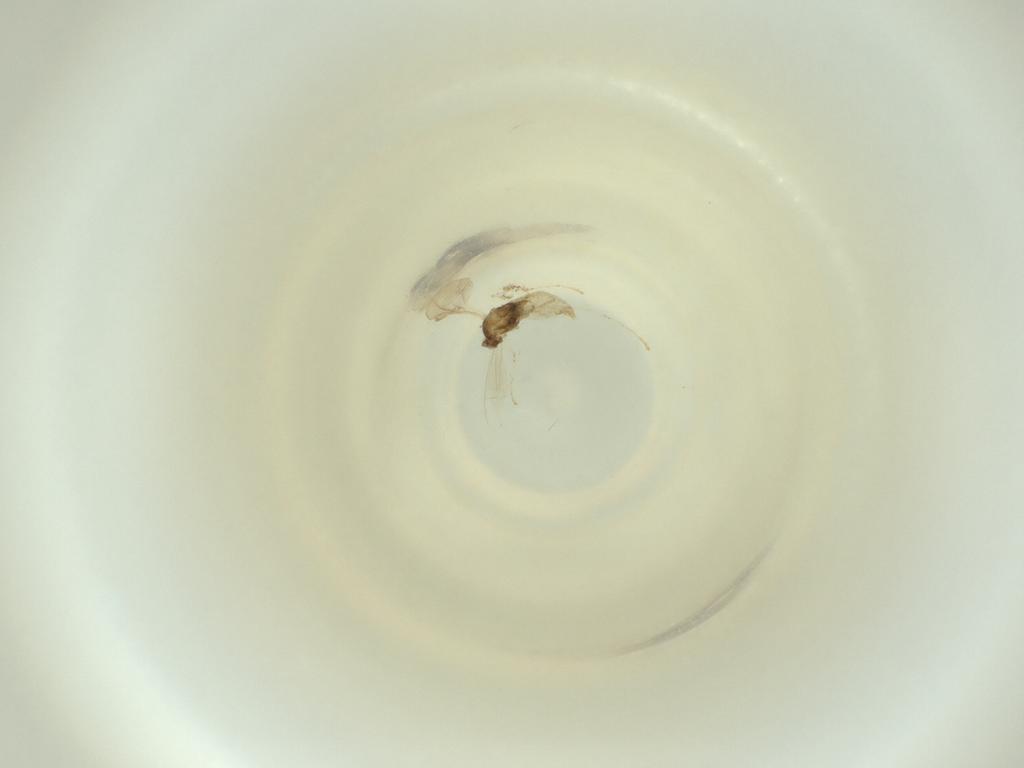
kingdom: Animalia
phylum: Arthropoda
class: Insecta
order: Diptera
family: Cecidomyiidae
